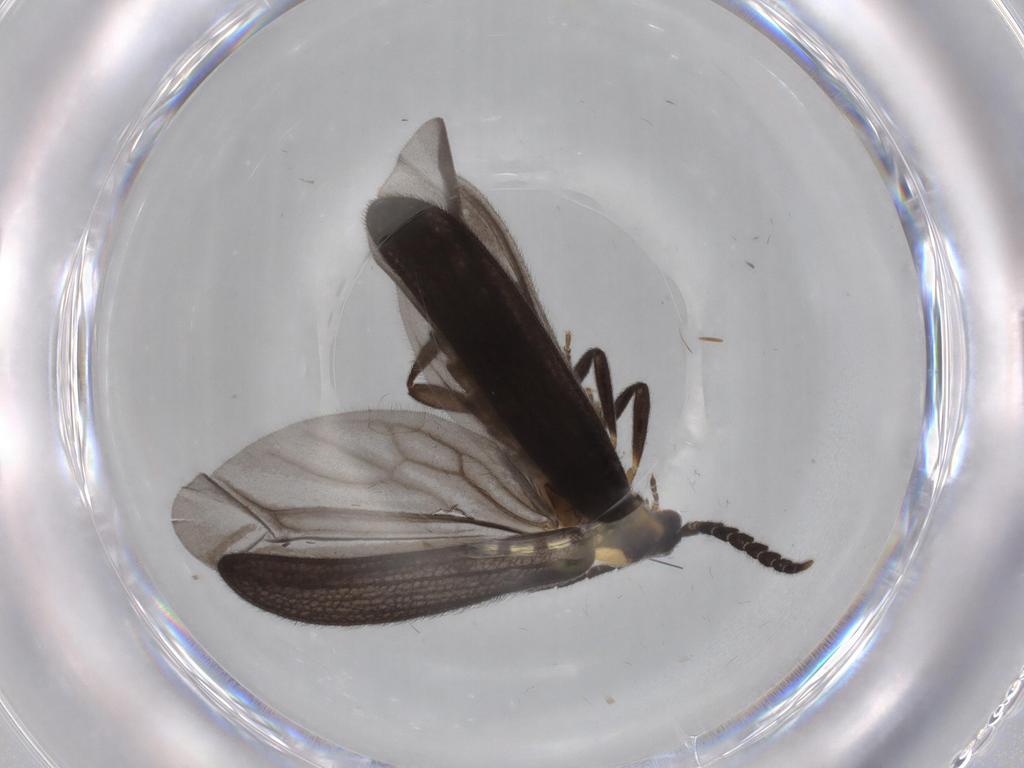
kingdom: Animalia
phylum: Arthropoda
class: Insecta
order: Coleoptera
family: Lycidae
